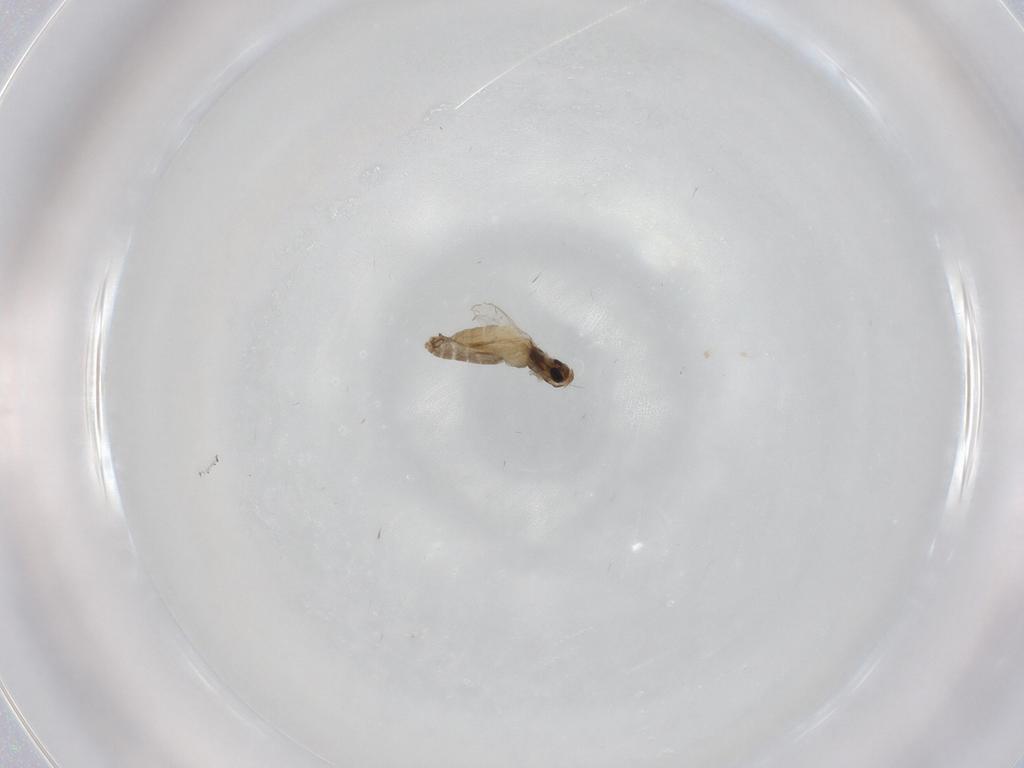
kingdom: Animalia
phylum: Arthropoda
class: Insecta
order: Diptera
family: Chironomidae
